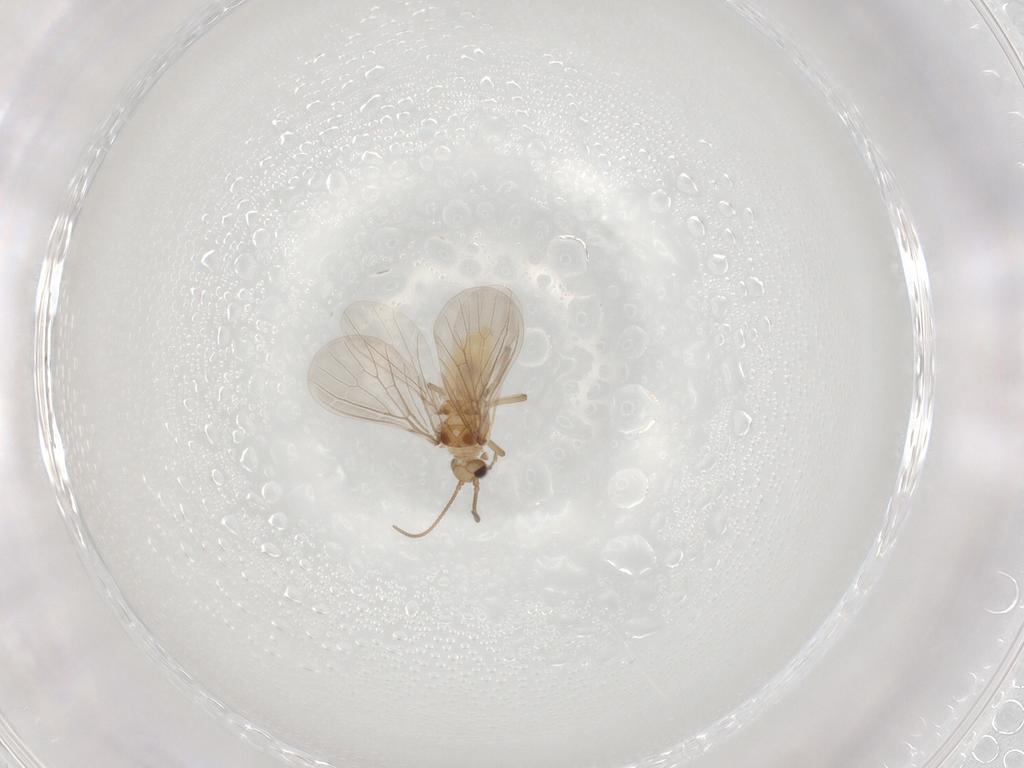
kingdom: Animalia
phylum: Arthropoda
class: Insecta
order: Neuroptera
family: Coniopterygidae
